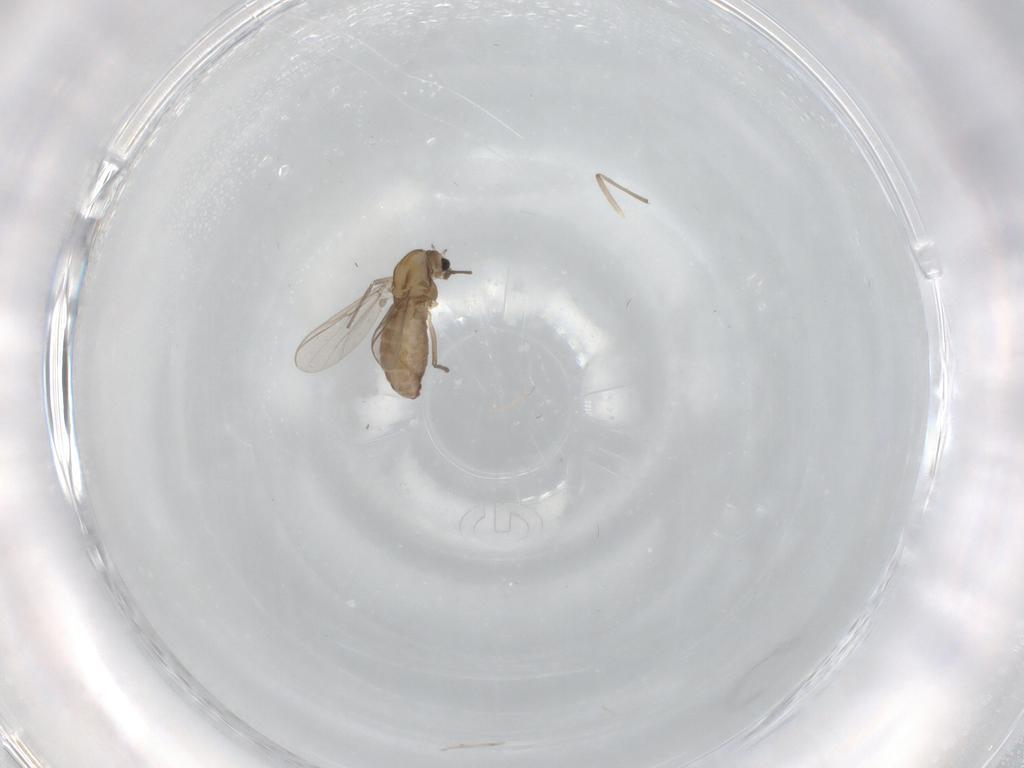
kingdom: Animalia
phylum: Arthropoda
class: Insecta
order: Diptera
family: Chironomidae
